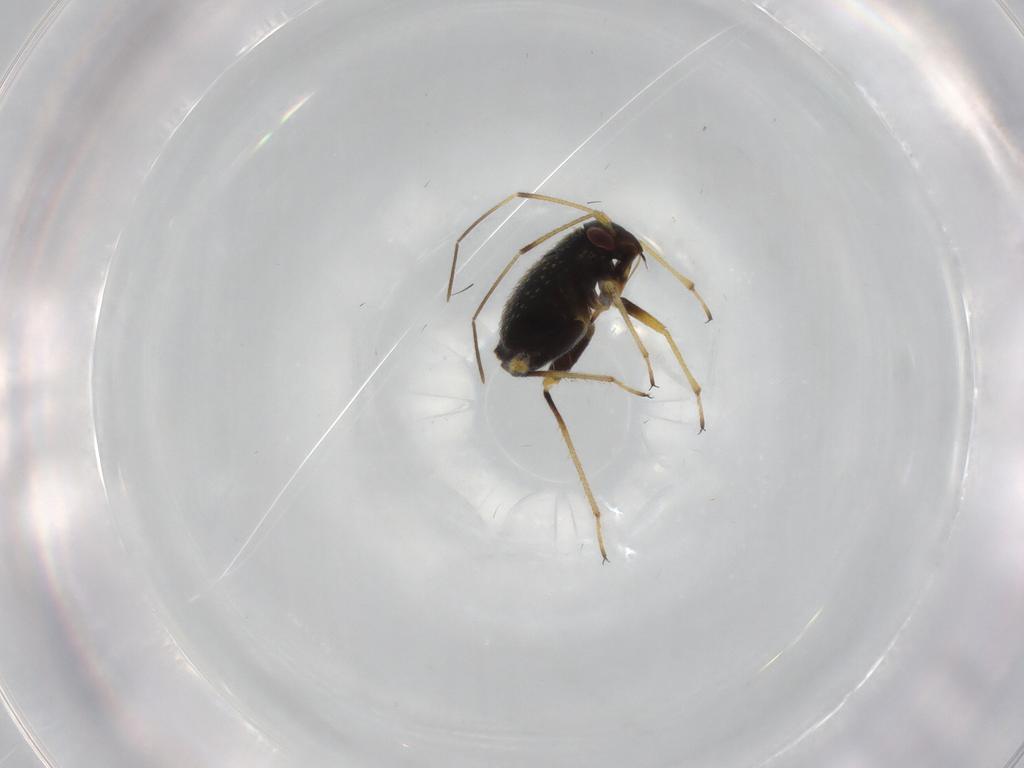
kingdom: Animalia
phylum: Arthropoda
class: Insecta
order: Hemiptera
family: Miridae
